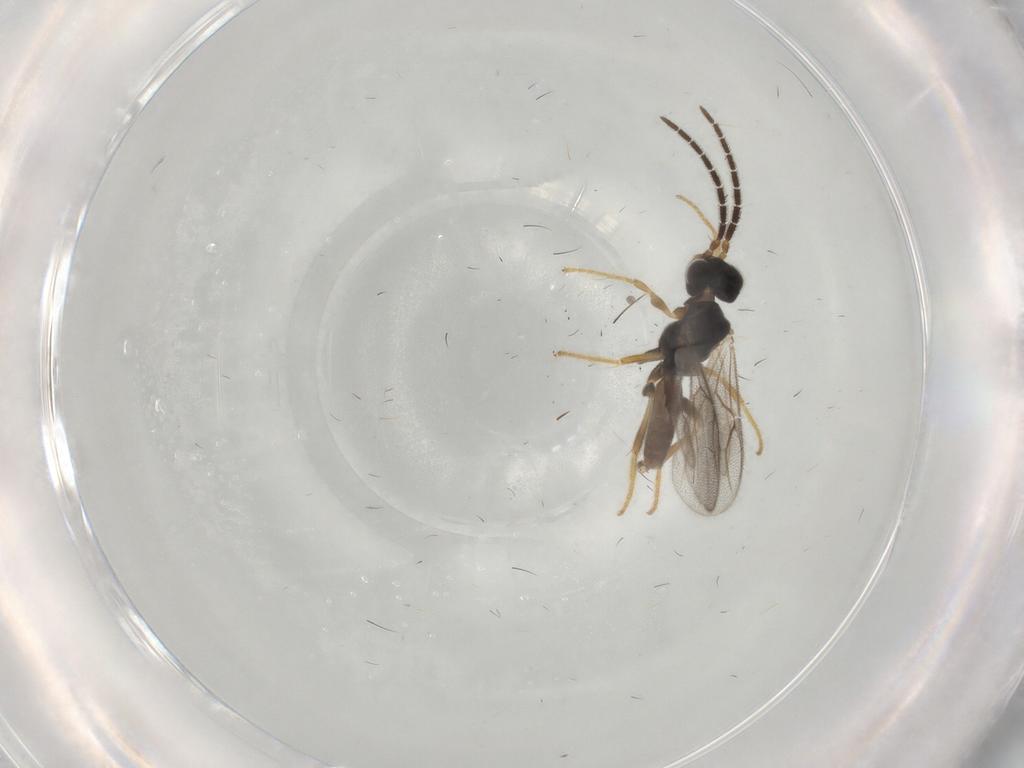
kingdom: Animalia
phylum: Arthropoda
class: Insecta
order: Hymenoptera
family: Dryinidae
